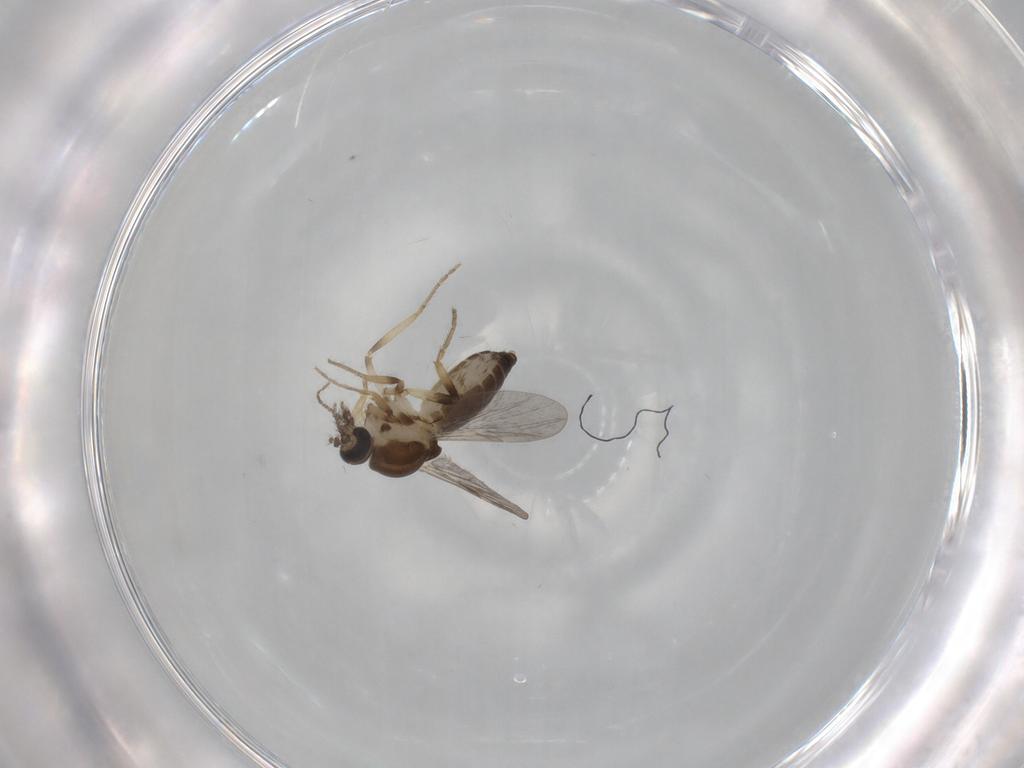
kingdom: Animalia
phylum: Arthropoda
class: Insecta
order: Diptera
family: Ceratopogonidae
